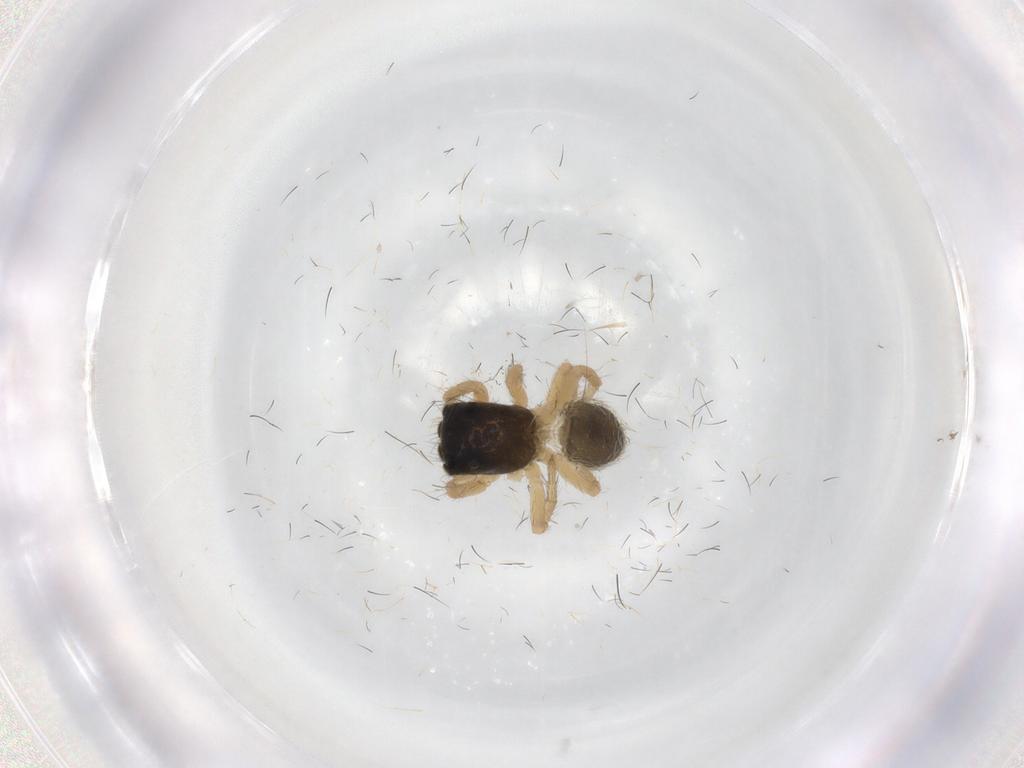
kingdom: Animalia
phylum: Arthropoda
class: Arachnida
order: Araneae
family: Salticidae
